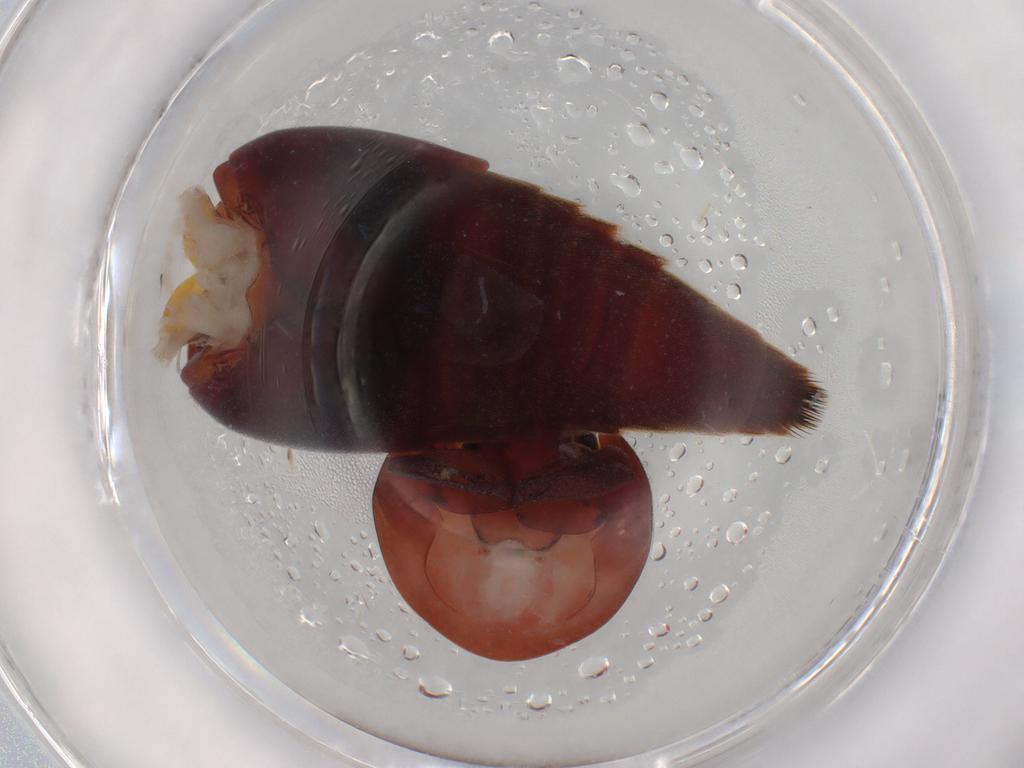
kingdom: Animalia
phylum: Arthropoda
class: Insecta
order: Coleoptera
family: Staphylinidae
